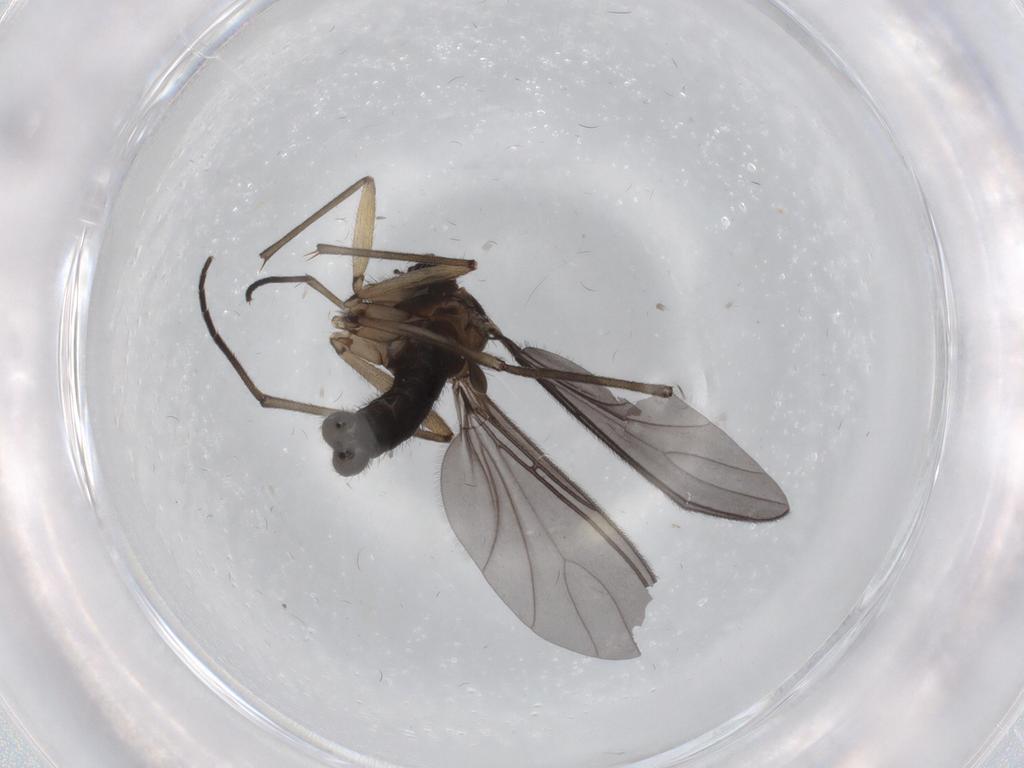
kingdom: Animalia
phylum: Arthropoda
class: Insecta
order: Diptera
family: Sciaridae
